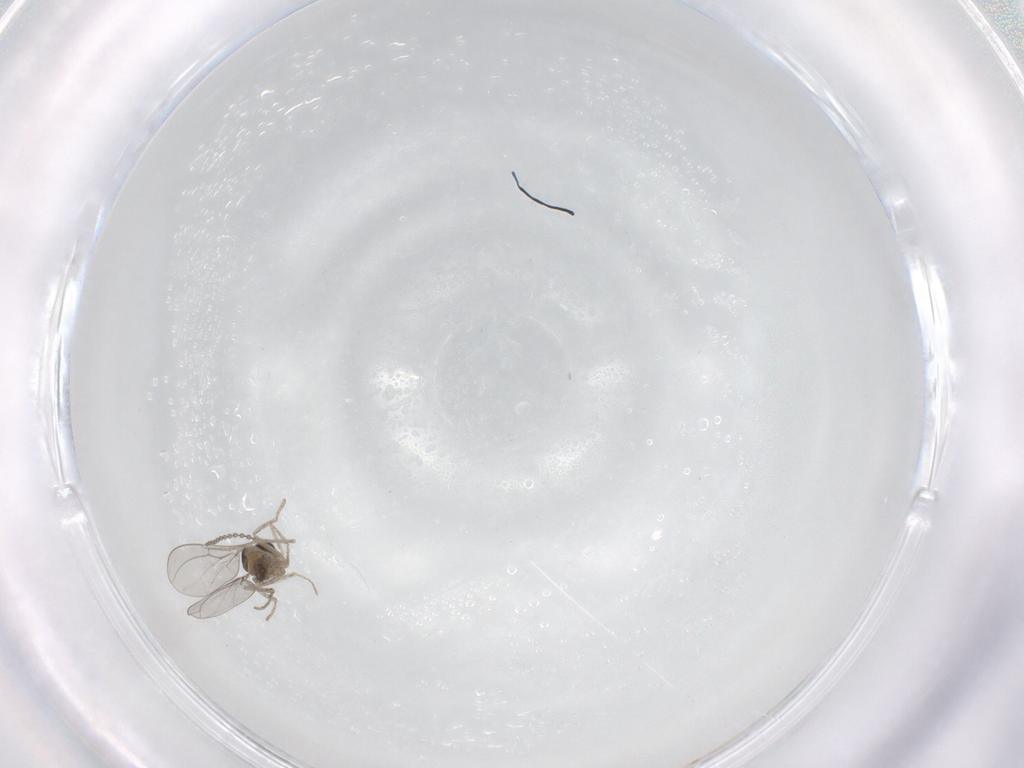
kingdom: Animalia
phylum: Arthropoda
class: Insecta
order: Diptera
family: Cecidomyiidae
